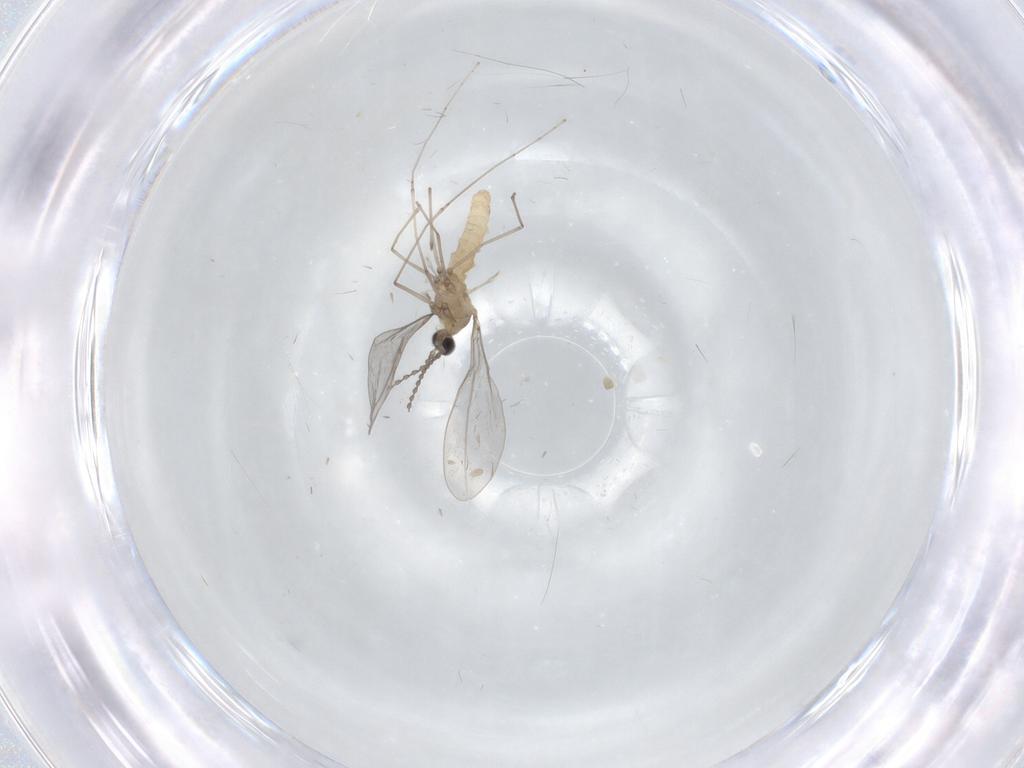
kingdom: Animalia
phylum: Arthropoda
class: Insecta
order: Diptera
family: Cecidomyiidae
